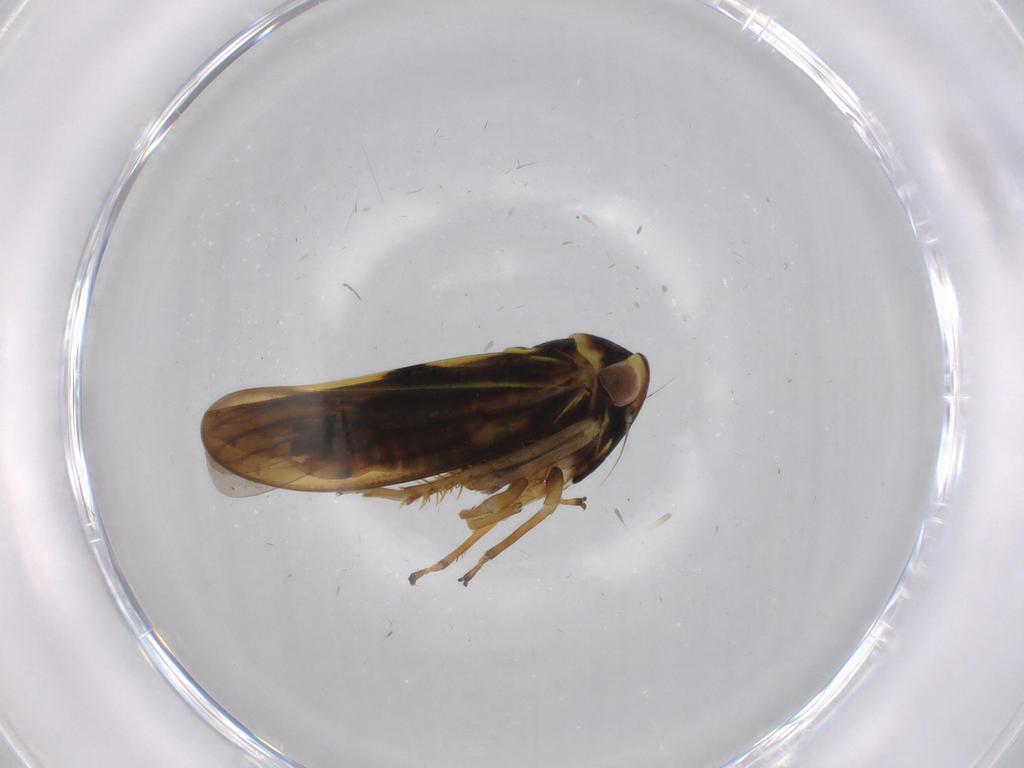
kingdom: Animalia
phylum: Arthropoda
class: Insecta
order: Hemiptera
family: Cicadellidae
